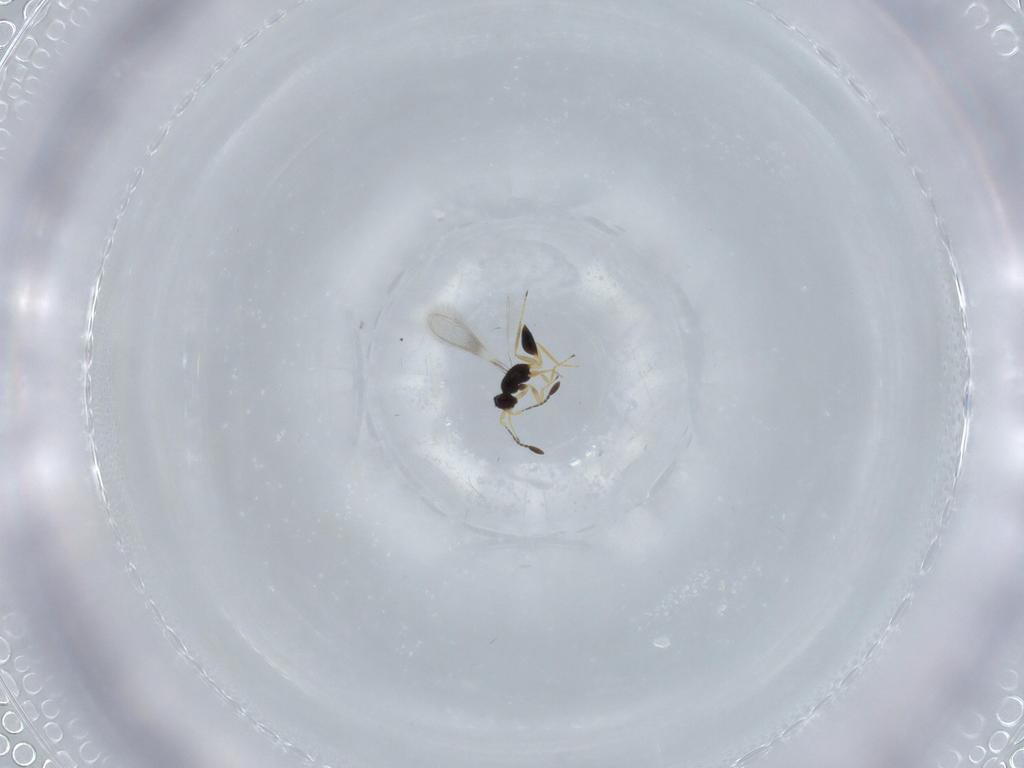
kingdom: Animalia
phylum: Arthropoda
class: Insecta
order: Hymenoptera
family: Mymaridae
